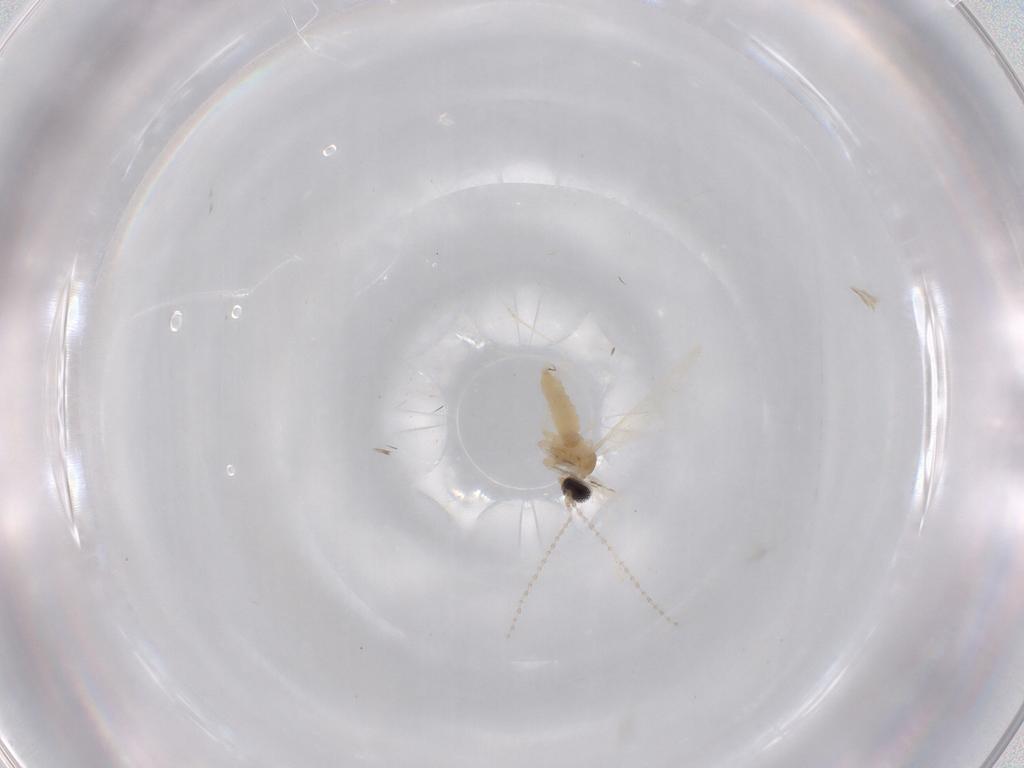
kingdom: Animalia
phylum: Arthropoda
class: Insecta
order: Diptera
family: Cecidomyiidae
